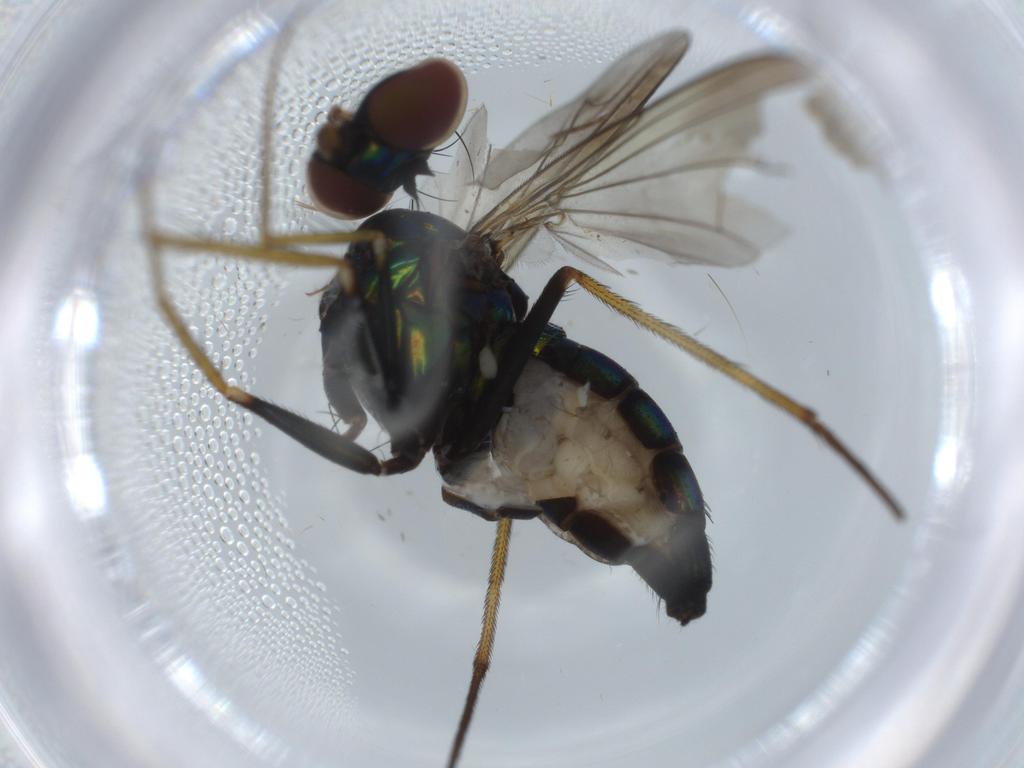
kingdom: Animalia
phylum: Arthropoda
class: Insecta
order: Diptera
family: Dolichopodidae
